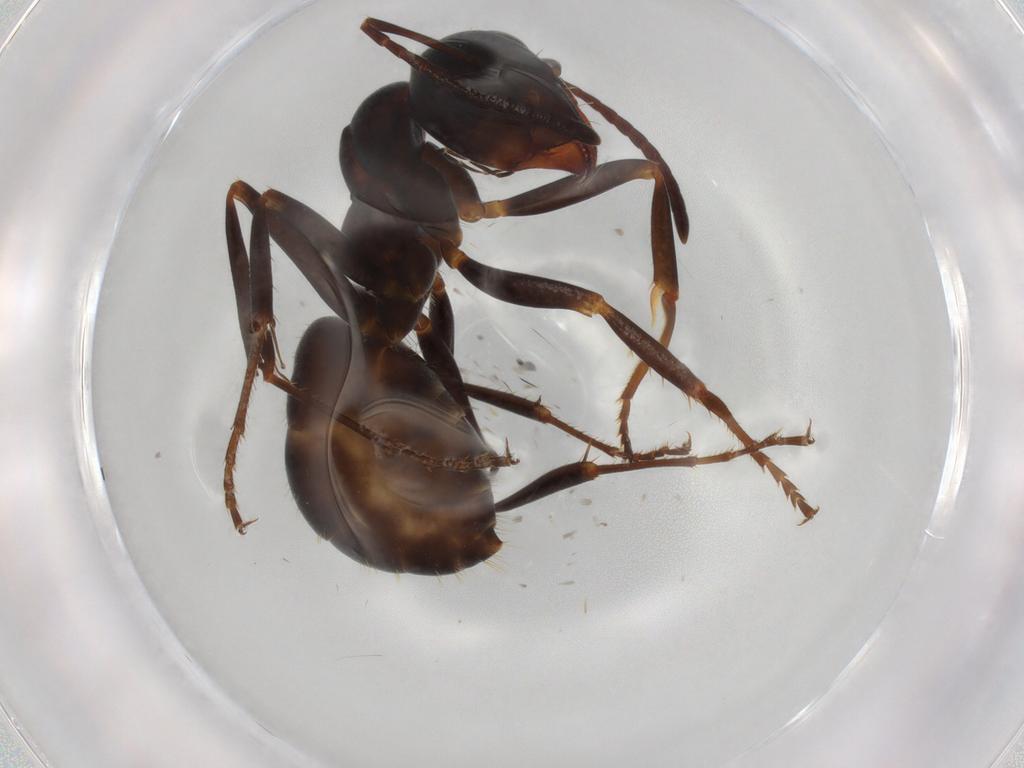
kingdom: Animalia
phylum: Arthropoda
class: Insecta
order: Hymenoptera
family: Formicidae
